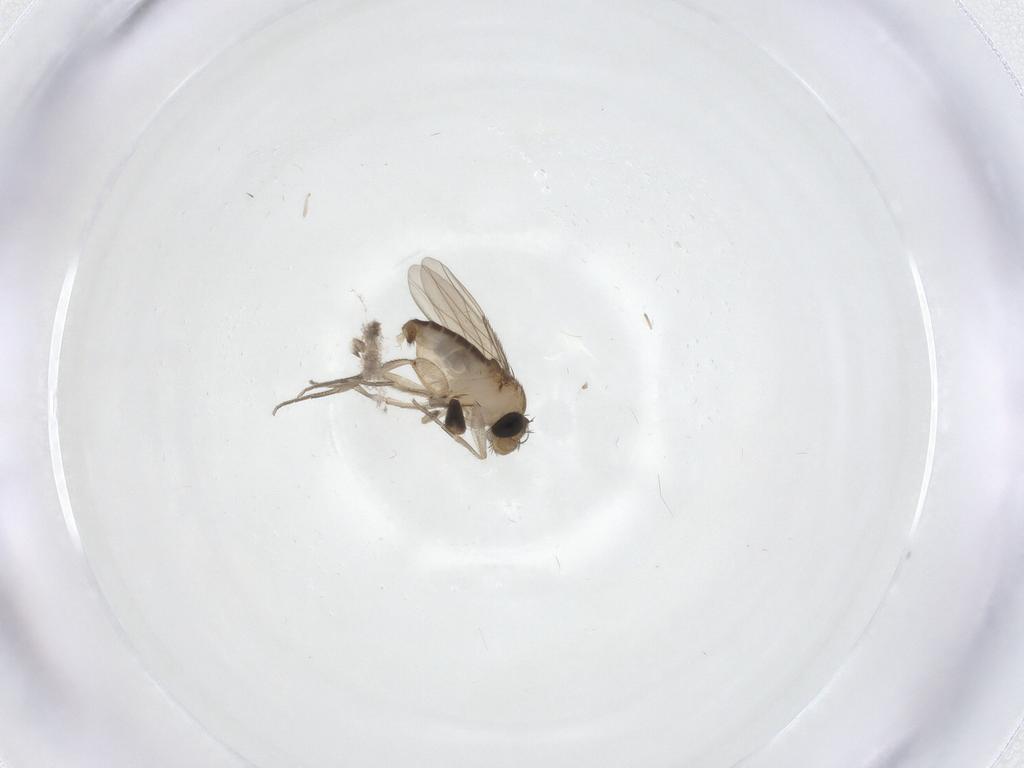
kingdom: Animalia
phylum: Arthropoda
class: Insecta
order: Diptera
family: Phoridae
